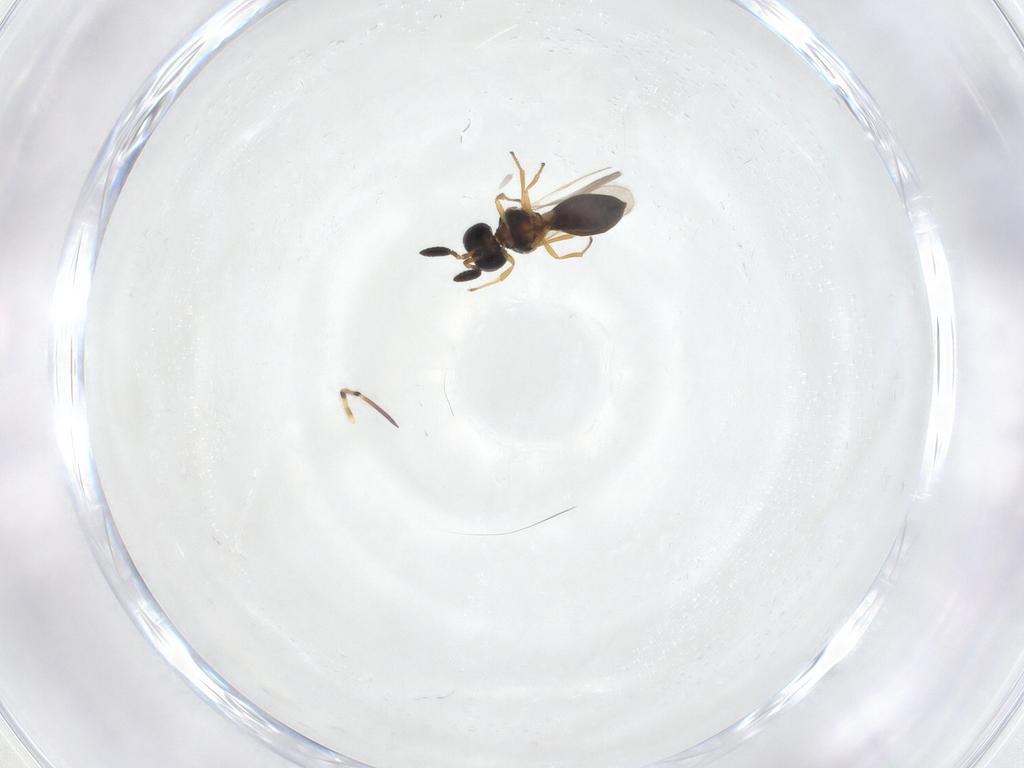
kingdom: Animalia
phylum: Arthropoda
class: Insecta
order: Hymenoptera
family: Scelionidae
